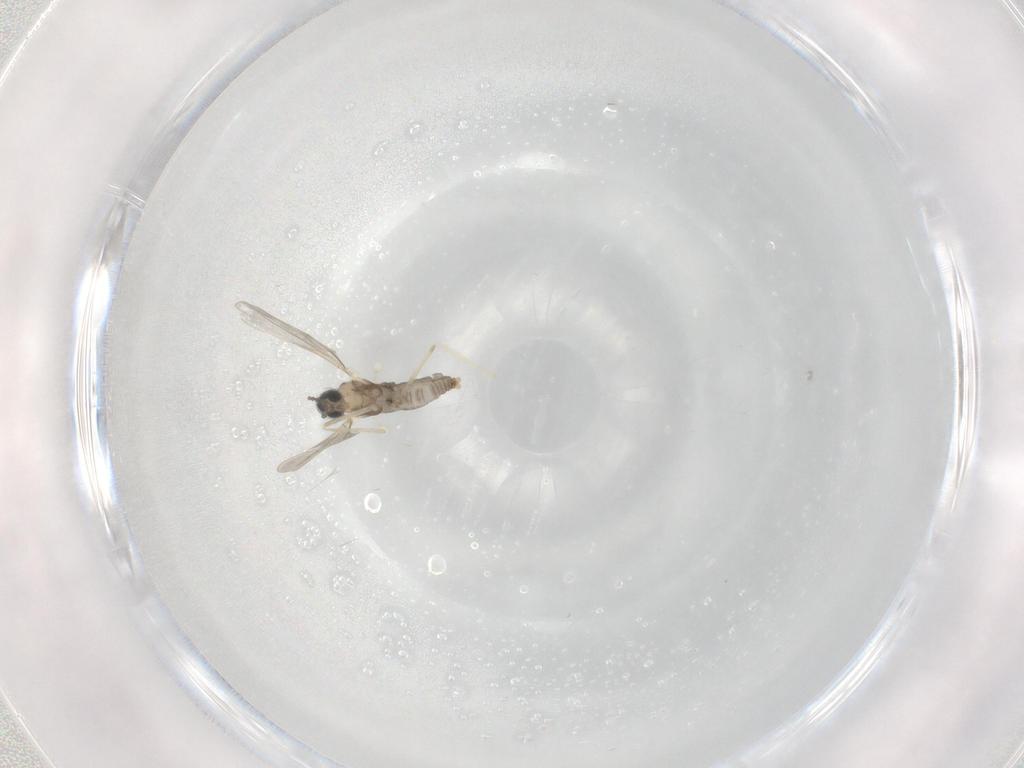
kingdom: Animalia
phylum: Arthropoda
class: Insecta
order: Diptera
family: Cecidomyiidae
